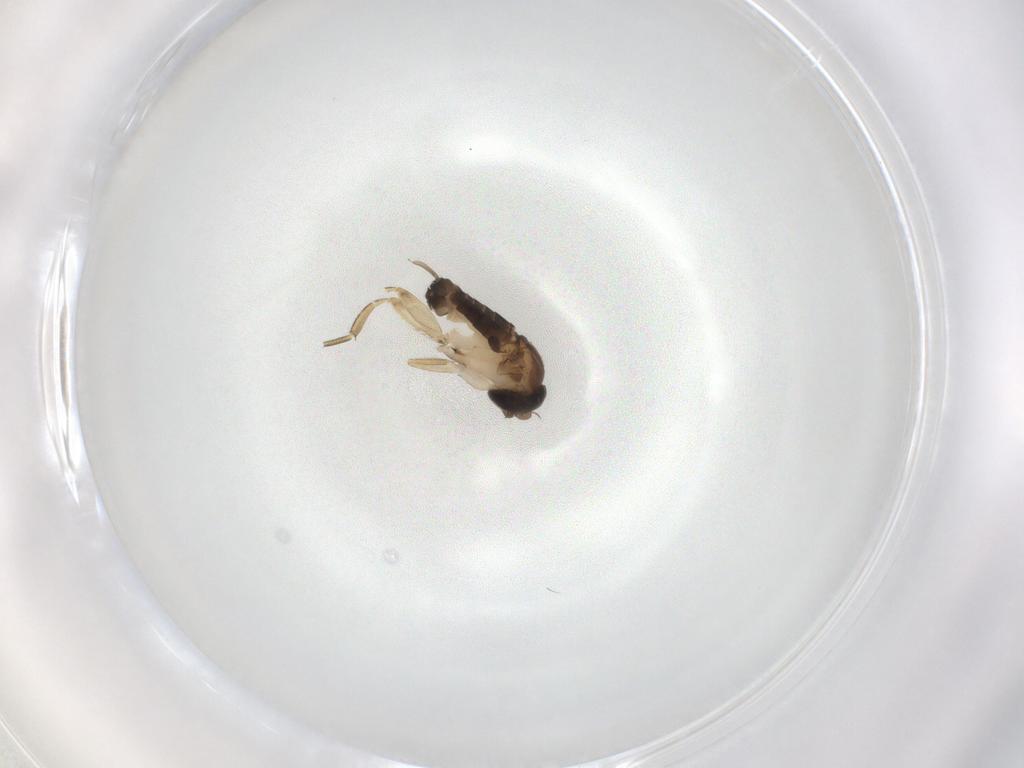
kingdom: Animalia
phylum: Arthropoda
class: Insecta
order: Diptera
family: Phoridae
